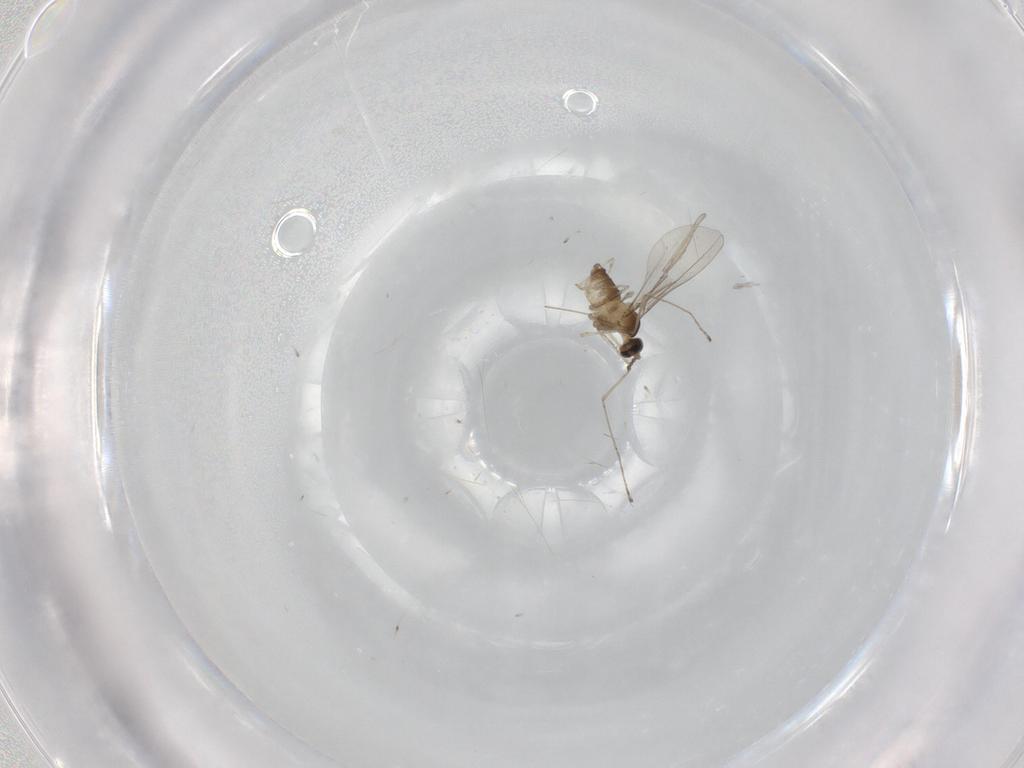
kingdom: Animalia
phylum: Arthropoda
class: Insecta
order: Diptera
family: Cecidomyiidae
